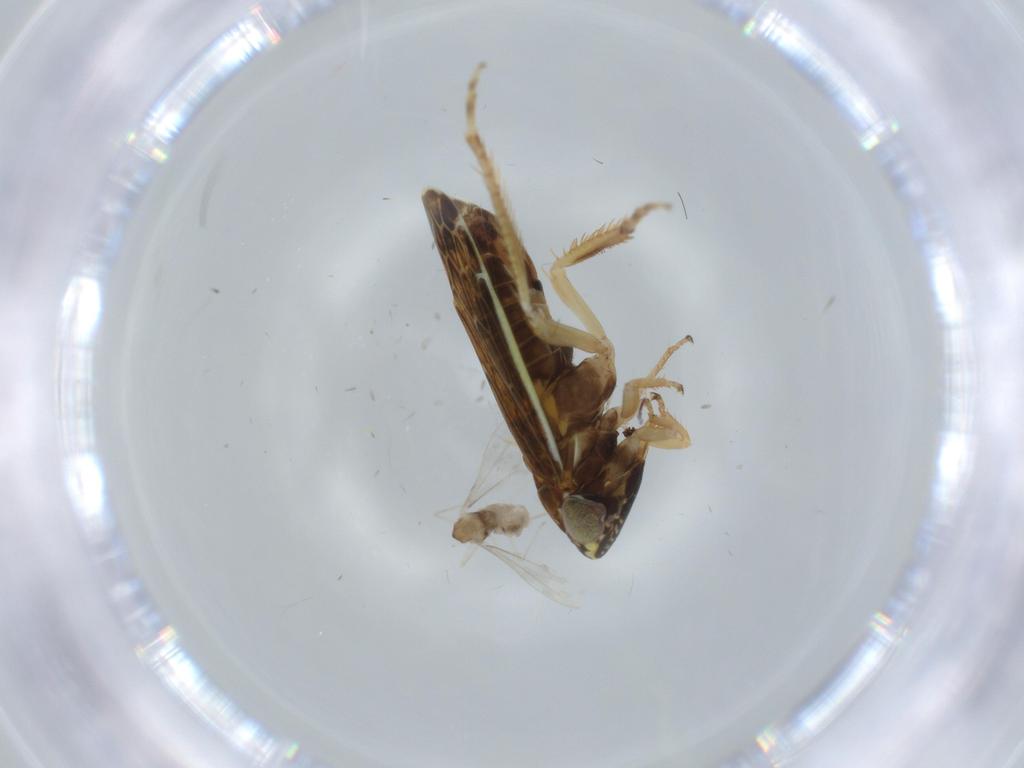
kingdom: Animalia
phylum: Arthropoda
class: Insecta
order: Hemiptera
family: Cicadellidae
